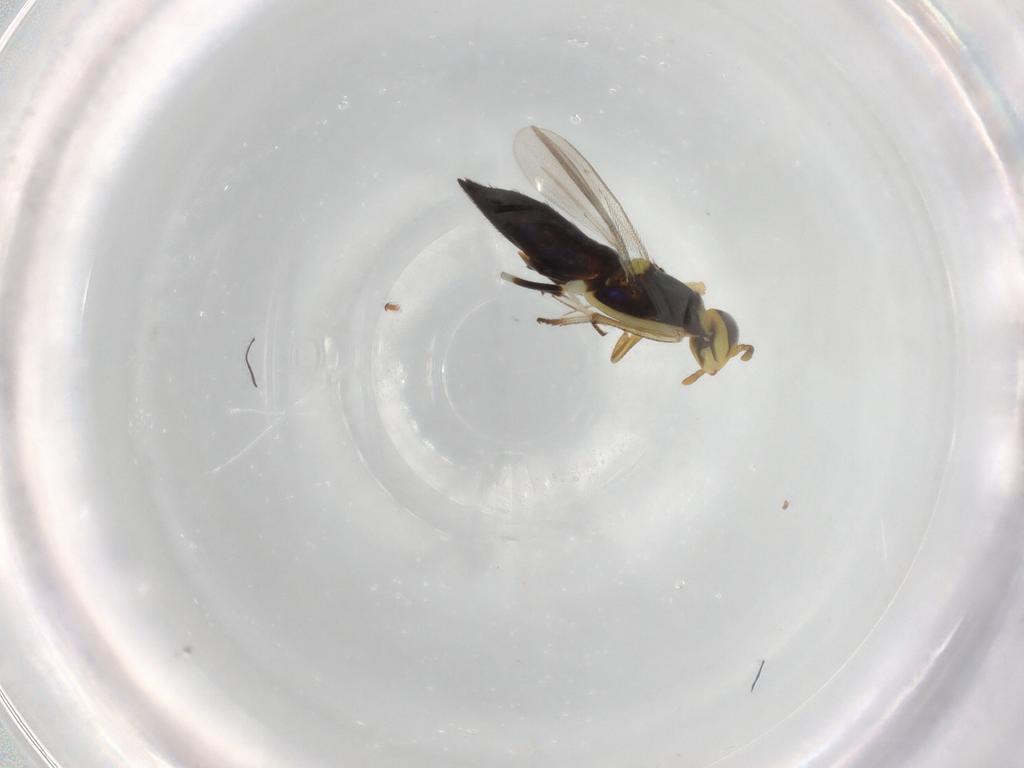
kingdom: Animalia
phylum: Arthropoda
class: Insecta
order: Hymenoptera
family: Eupelmidae
